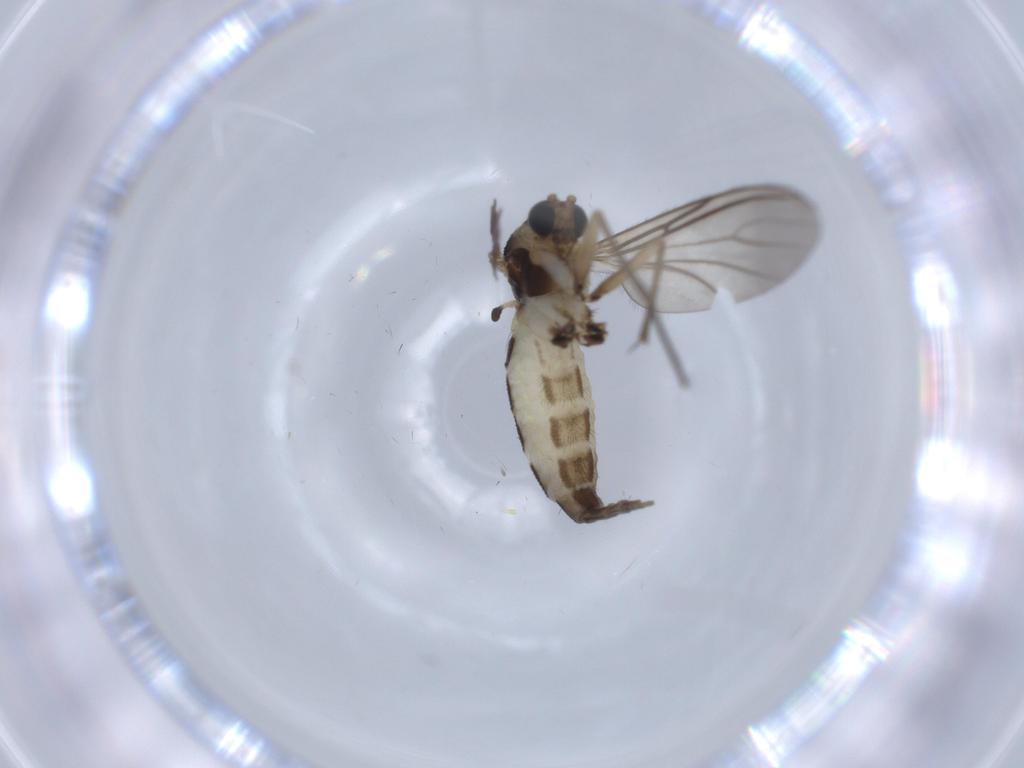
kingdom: Animalia
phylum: Arthropoda
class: Insecta
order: Diptera
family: Sciaridae
